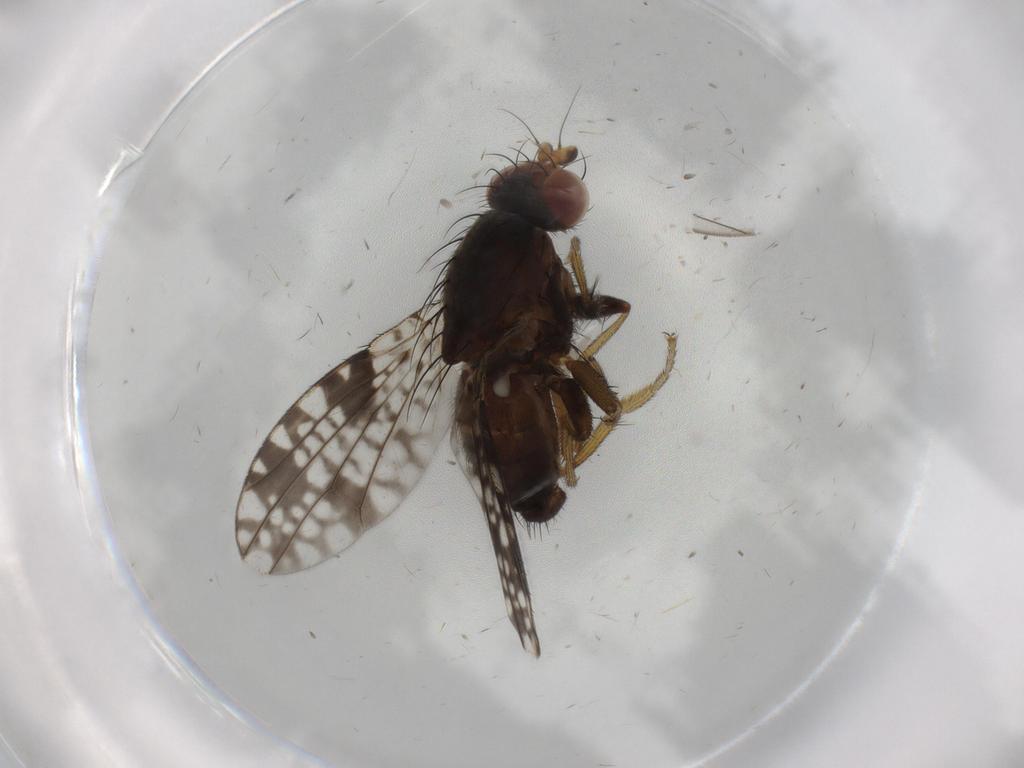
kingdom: Animalia
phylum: Arthropoda
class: Insecta
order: Diptera
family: Tephritidae
